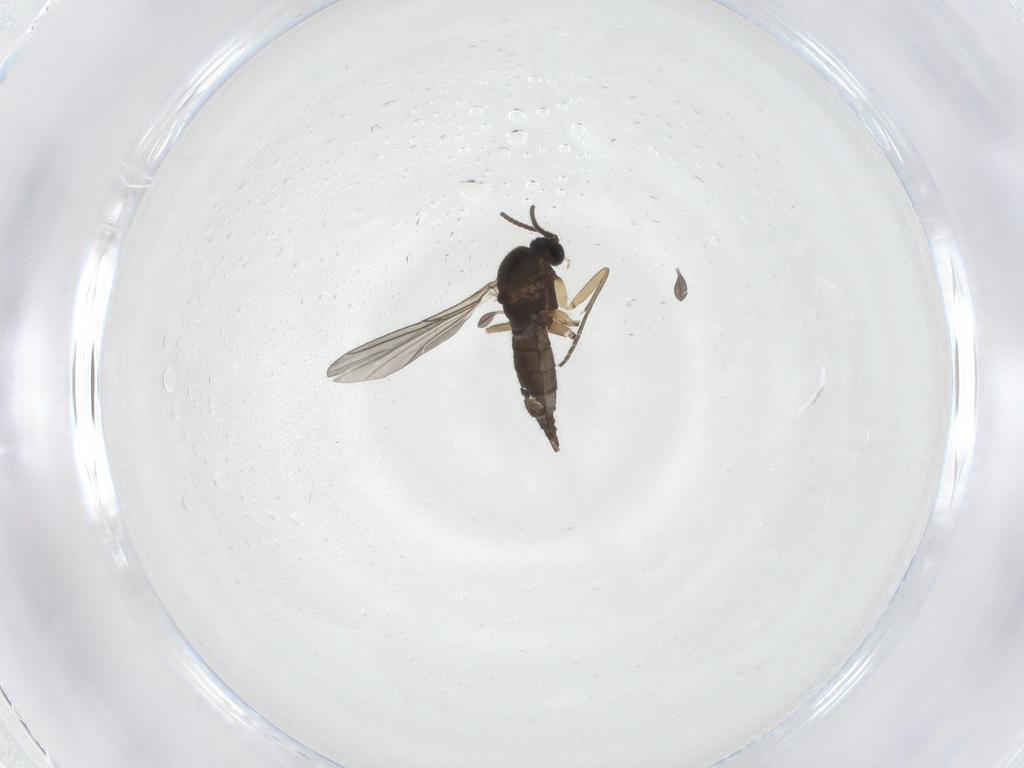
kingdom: Animalia
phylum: Arthropoda
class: Insecta
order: Diptera
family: Sciaridae
